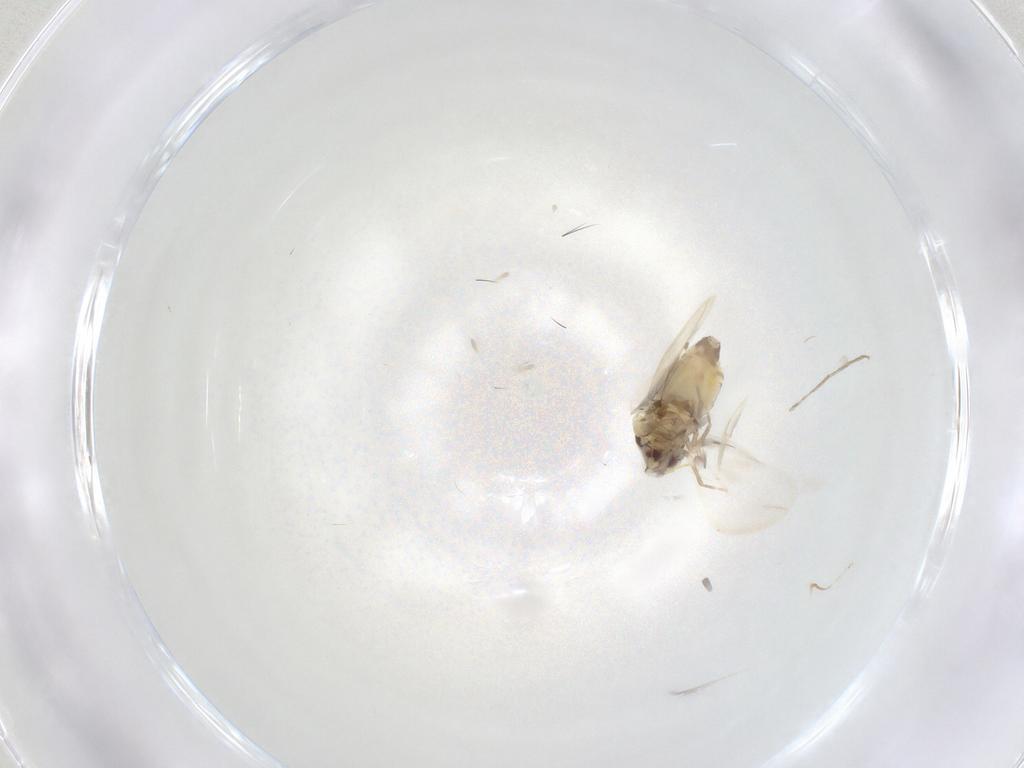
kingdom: Animalia
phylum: Arthropoda
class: Insecta
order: Hemiptera
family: Aleyrodidae
